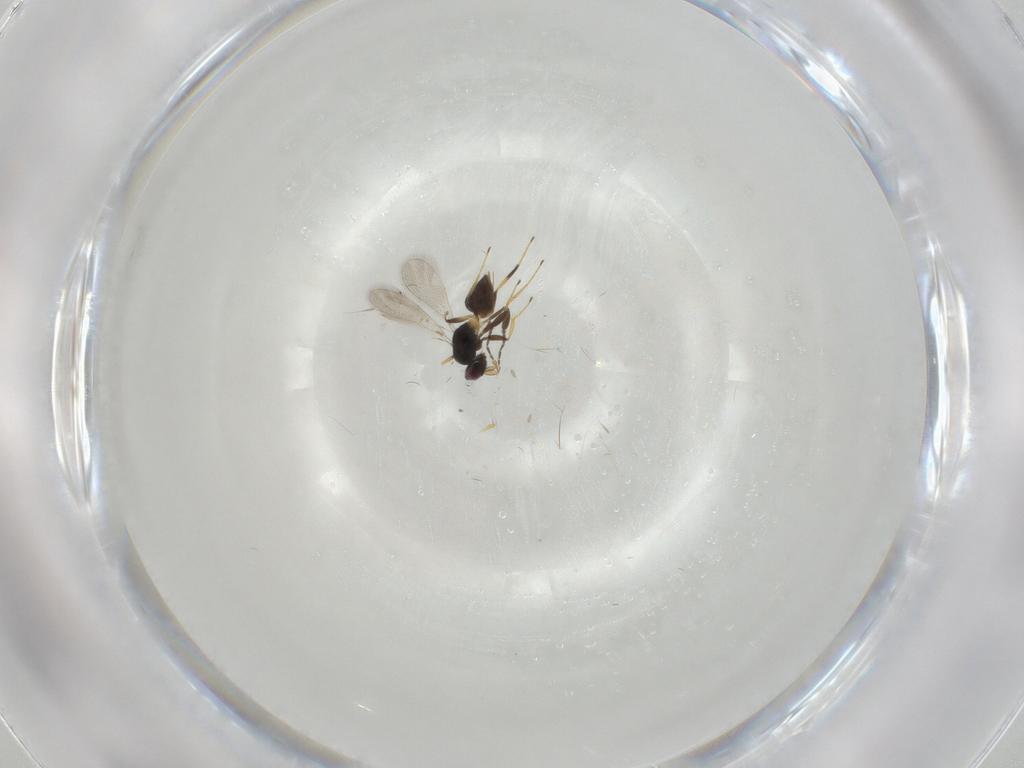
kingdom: Animalia
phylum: Arthropoda
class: Insecta
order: Hymenoptera
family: Mymaridae
